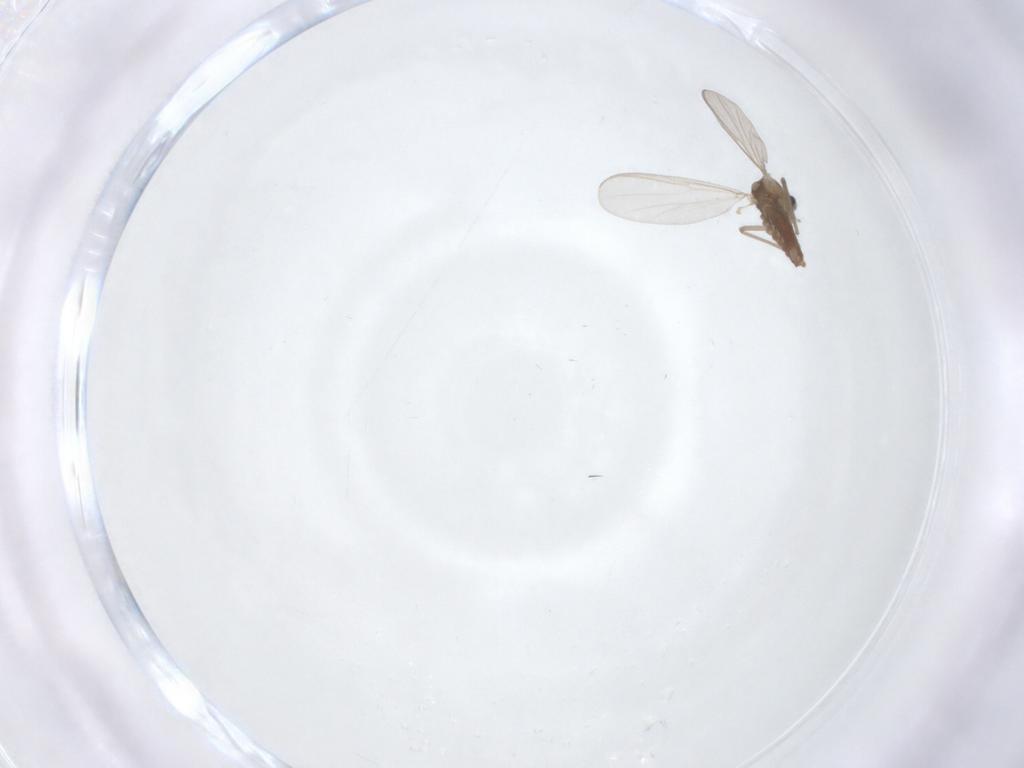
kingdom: Animalia
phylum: Arthropoda
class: Insecta
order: Diptera
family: Chironomidae
